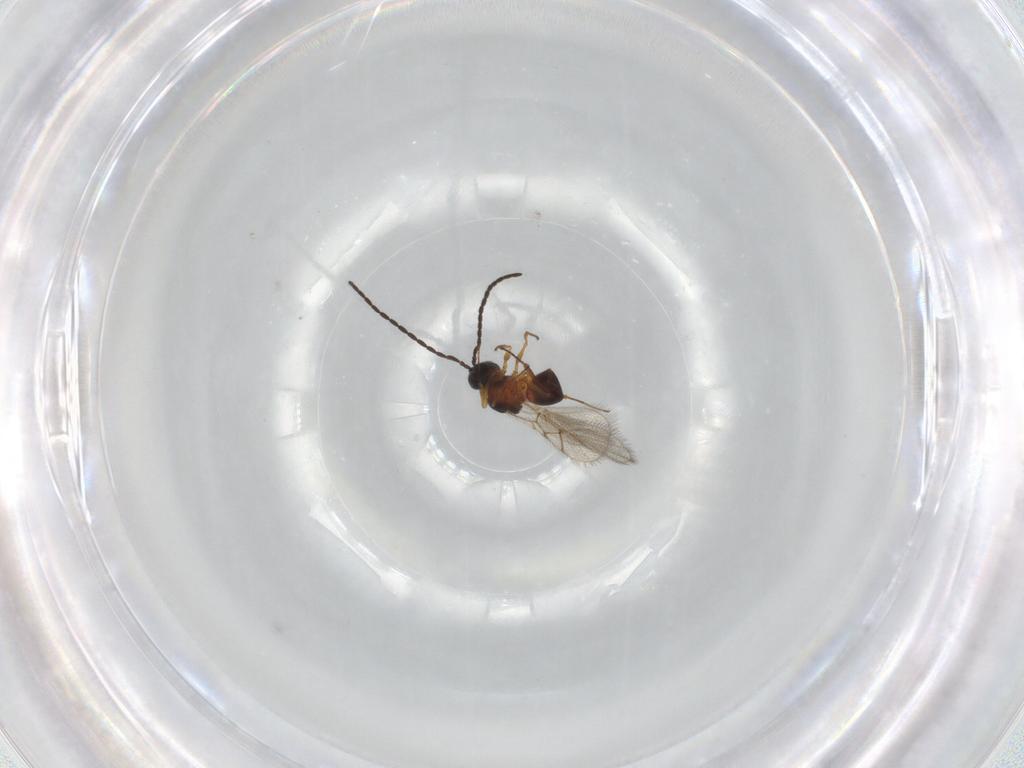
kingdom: Animalia
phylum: Arthropoda
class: Insecta
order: Hymenoptera
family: Figitidae
